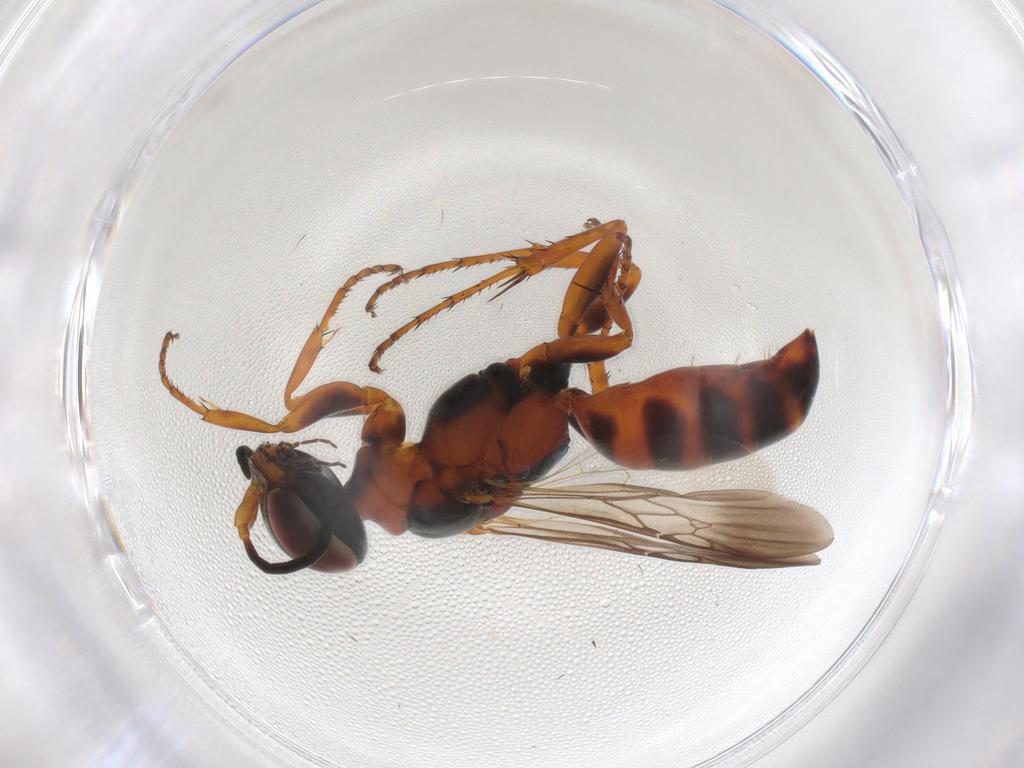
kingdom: Animalia
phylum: Arthropoda
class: Insecta
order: Hymenoptera
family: Crabronidae
